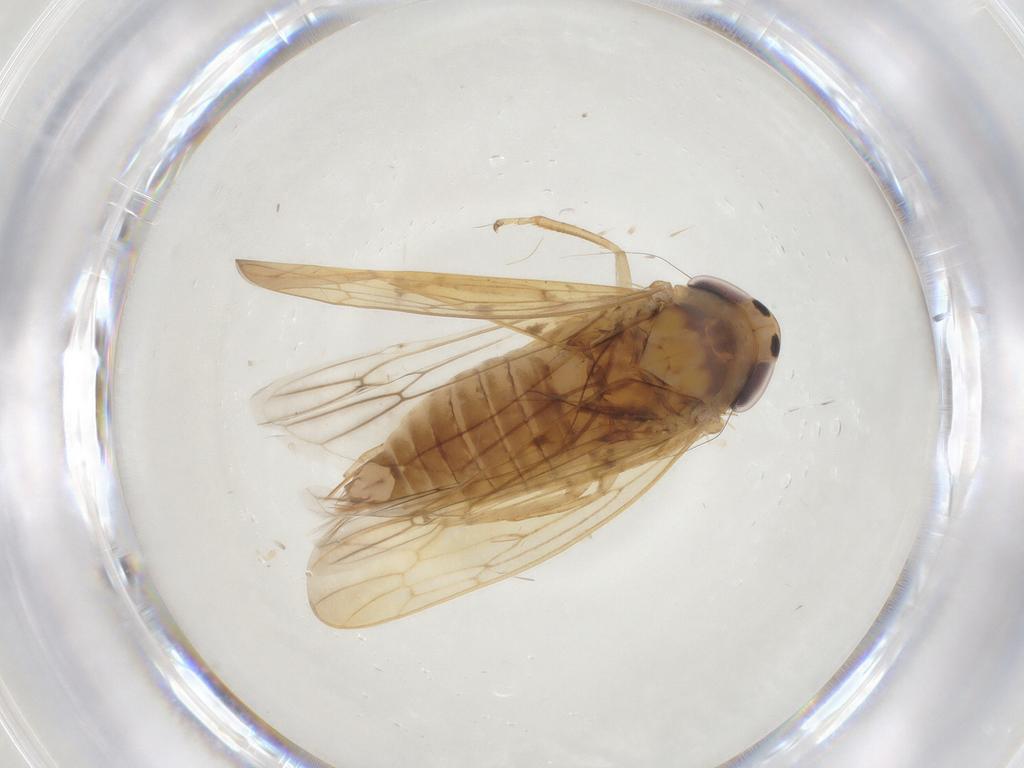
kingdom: Animalia
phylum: Arthropoda
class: Insecta
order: Hemiptera
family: Cicadellidae
